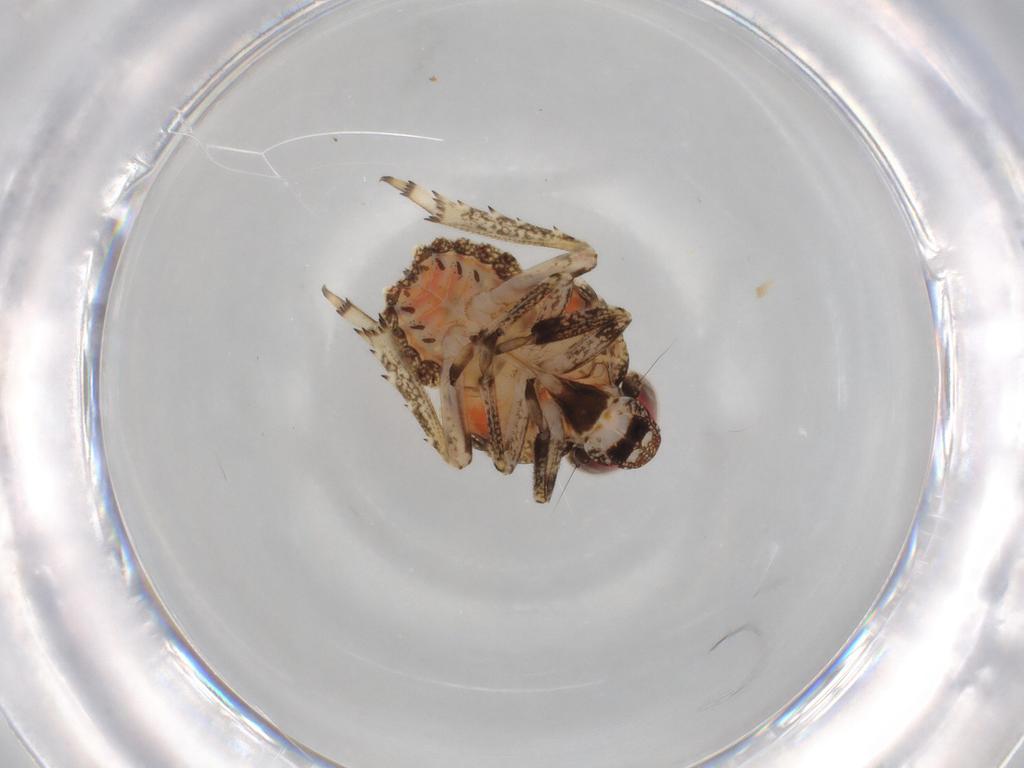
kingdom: Animalia
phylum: Arthropoda
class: Insecta
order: Hemiptera
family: Issidae
